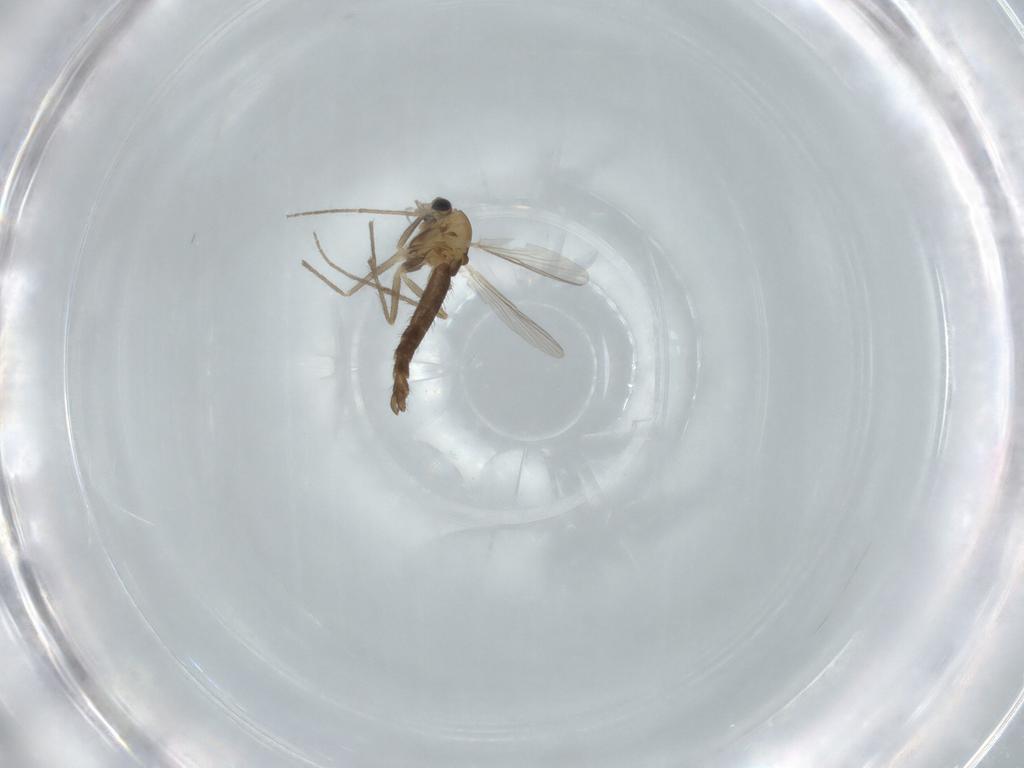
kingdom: Animalia
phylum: Arthropoda
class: Insecta
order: Diptera
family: Chironomidae
